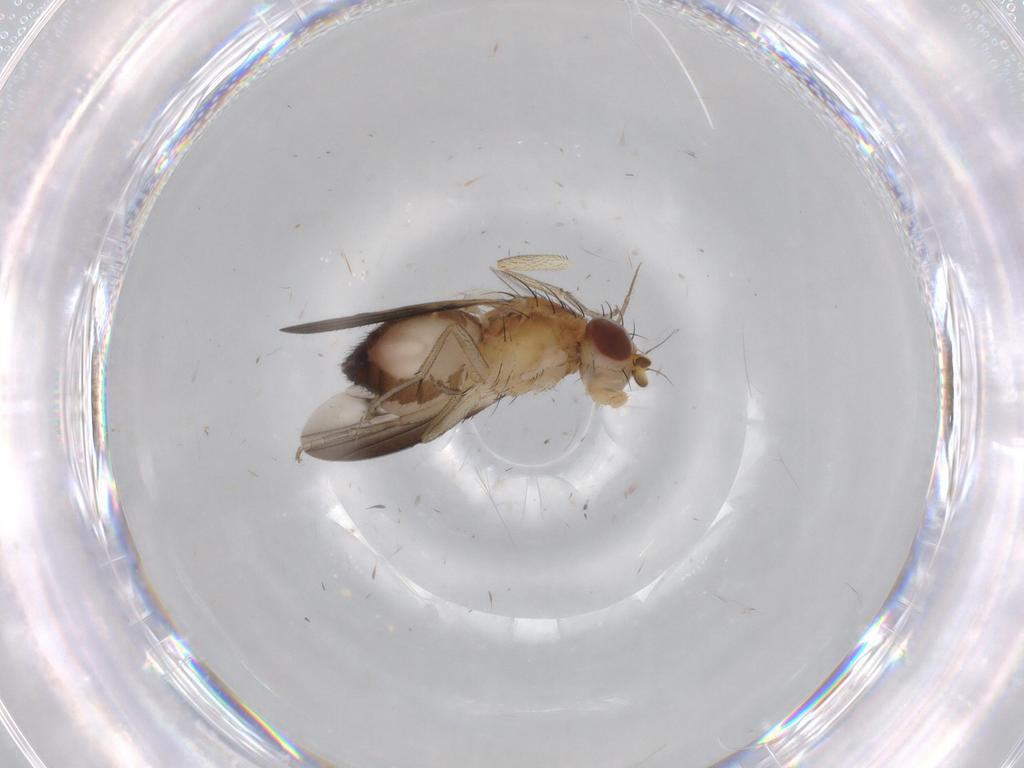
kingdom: Animalia
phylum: Arthropoda
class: Insecta
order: Diptera
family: Heleomyzidae
